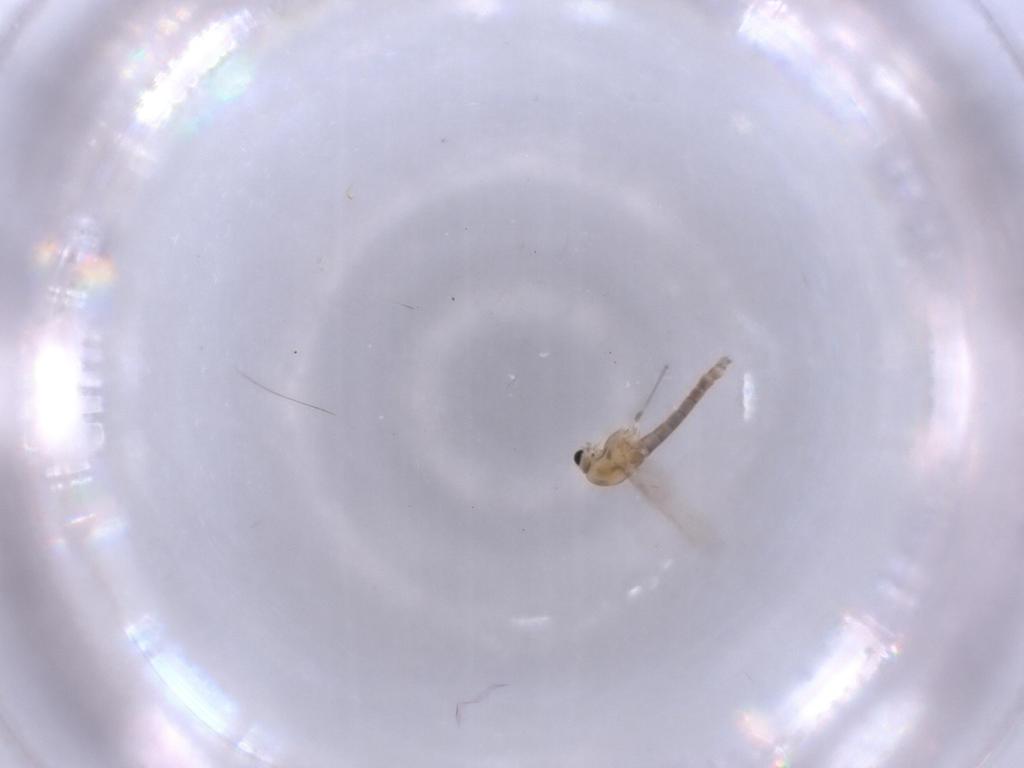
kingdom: Animalia
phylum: Arthropoda
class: Insecta
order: Diptera
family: Chironomidae
